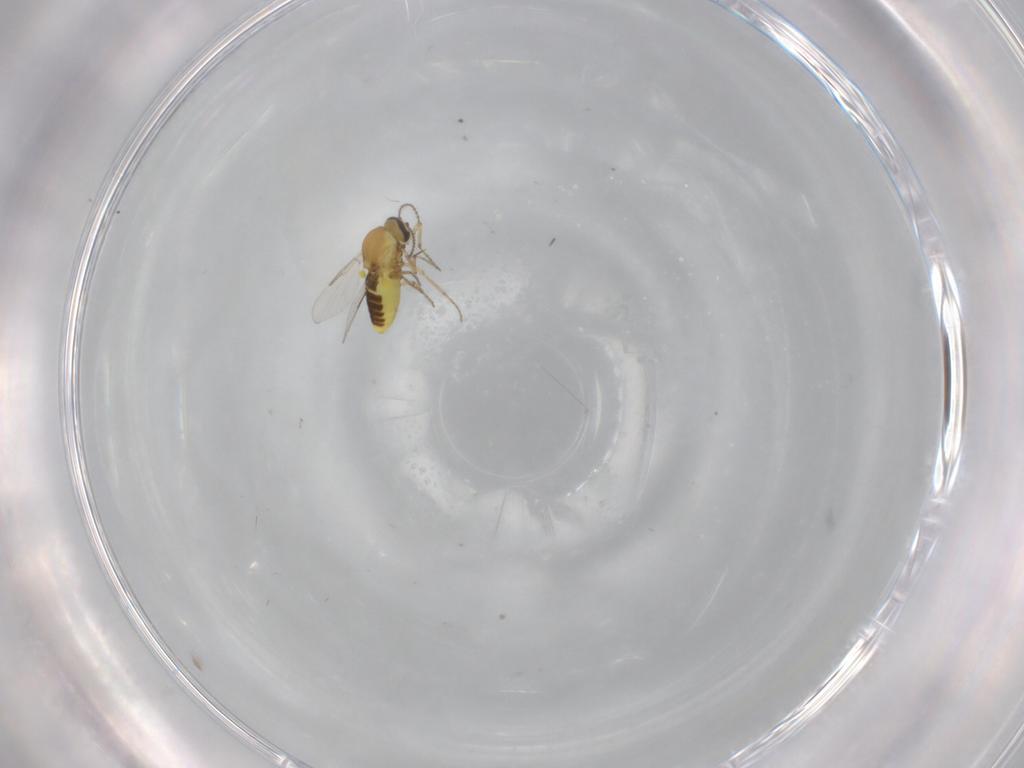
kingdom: Animalia
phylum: Arthropoda
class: Insecta
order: Diptera
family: Ceratopogonidae
